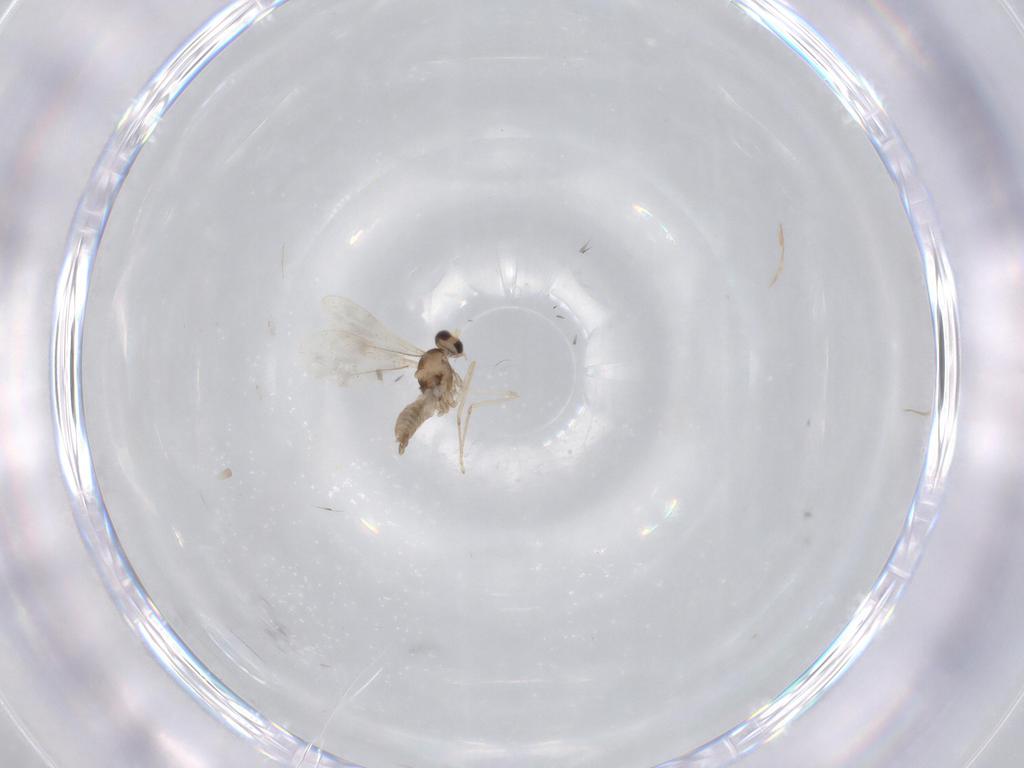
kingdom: Animalia
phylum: Arthropoda
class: Insecta
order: Diptera
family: Cecidomyiidae
